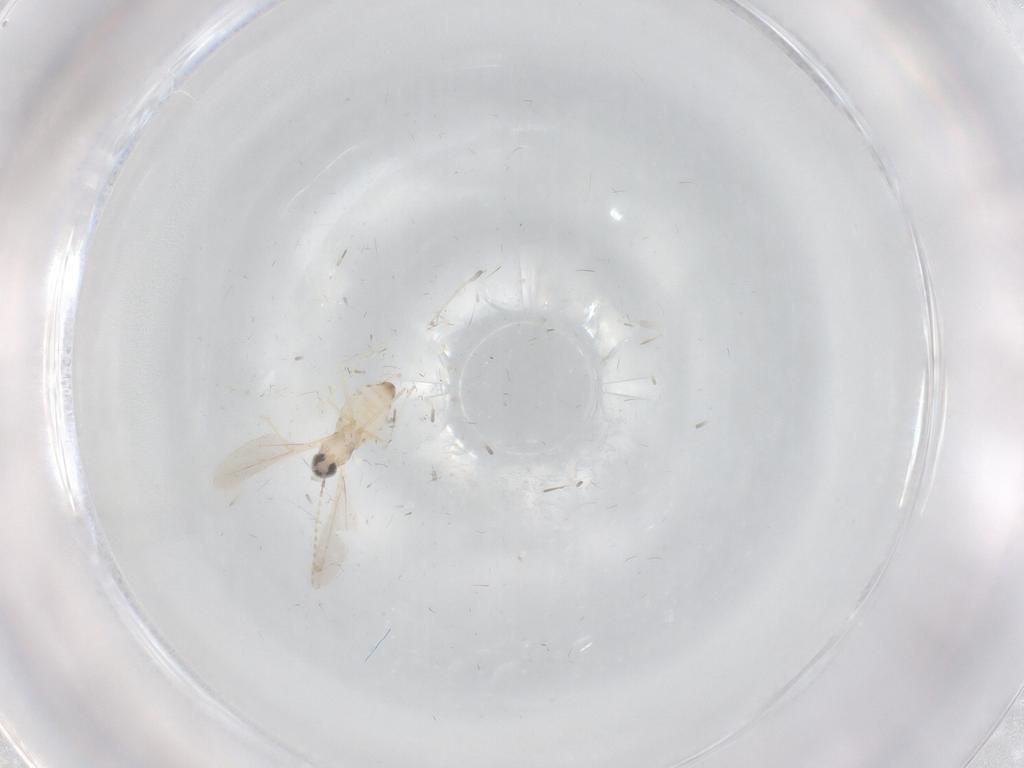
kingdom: Animalia
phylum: Arthropoda
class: Insecta
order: Diptera
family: Cecidomyiidae
